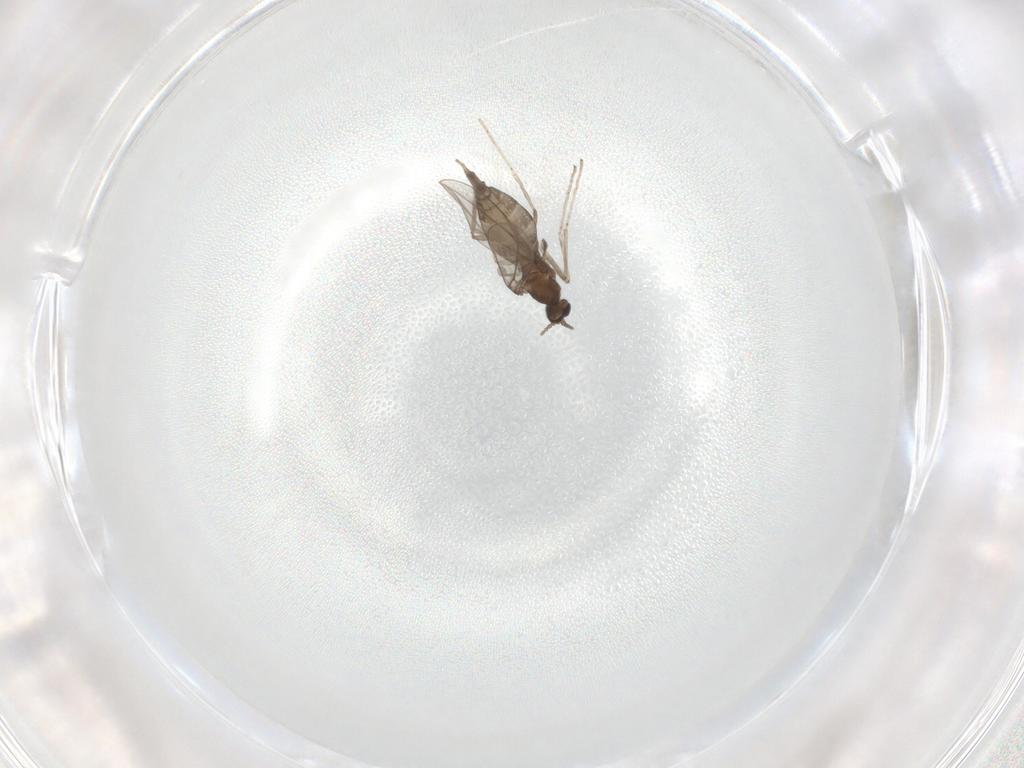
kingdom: Animalia
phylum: Arthropoda
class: Insecta
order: Diptera
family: Cecidomyiidae
